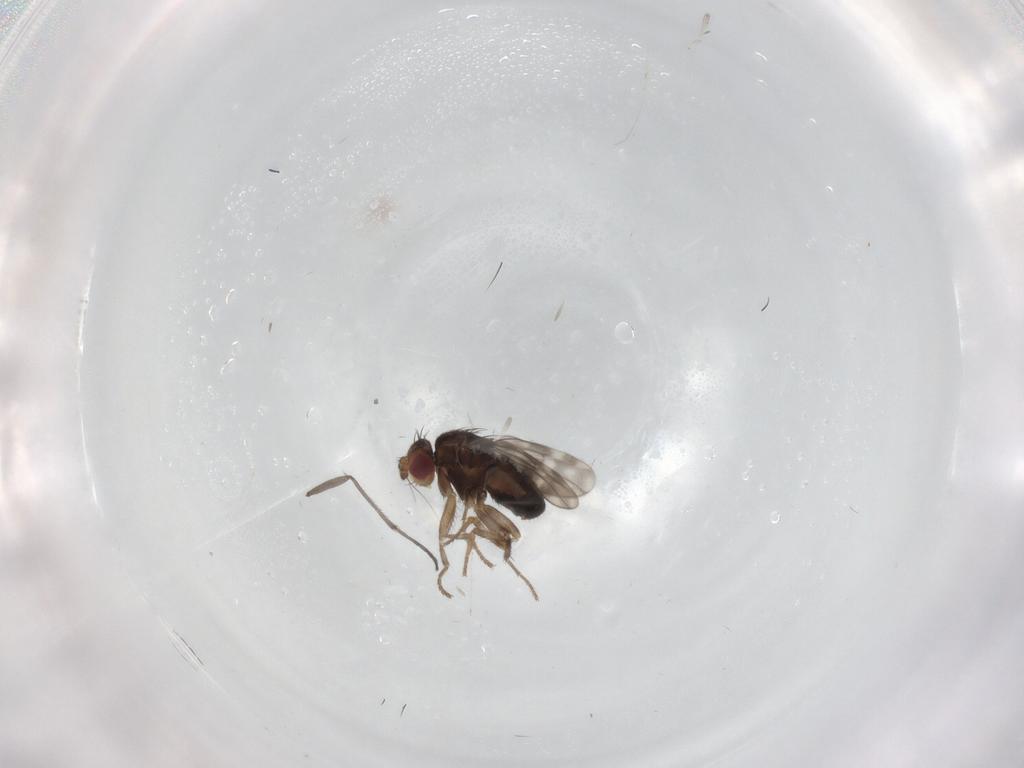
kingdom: Animalia
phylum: Arthropoda
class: Insecta
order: Diptera
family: Sphaeroceridae
